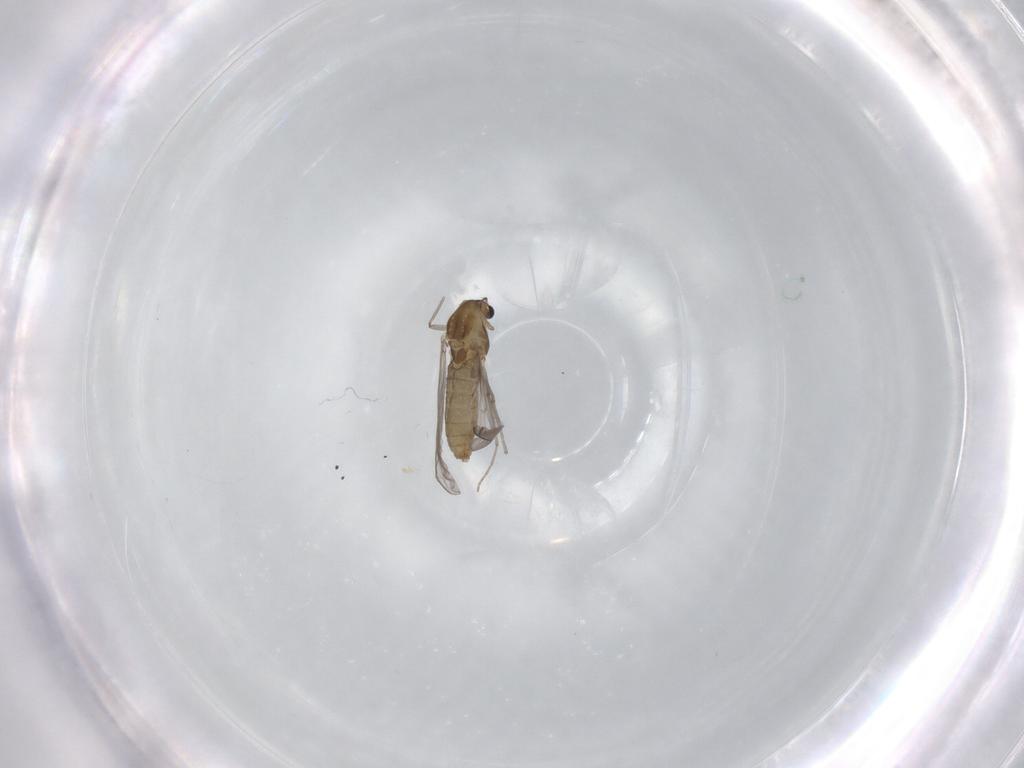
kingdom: Animalia
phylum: Arthropoda
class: Insecta
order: Diptera
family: Chironomidae
